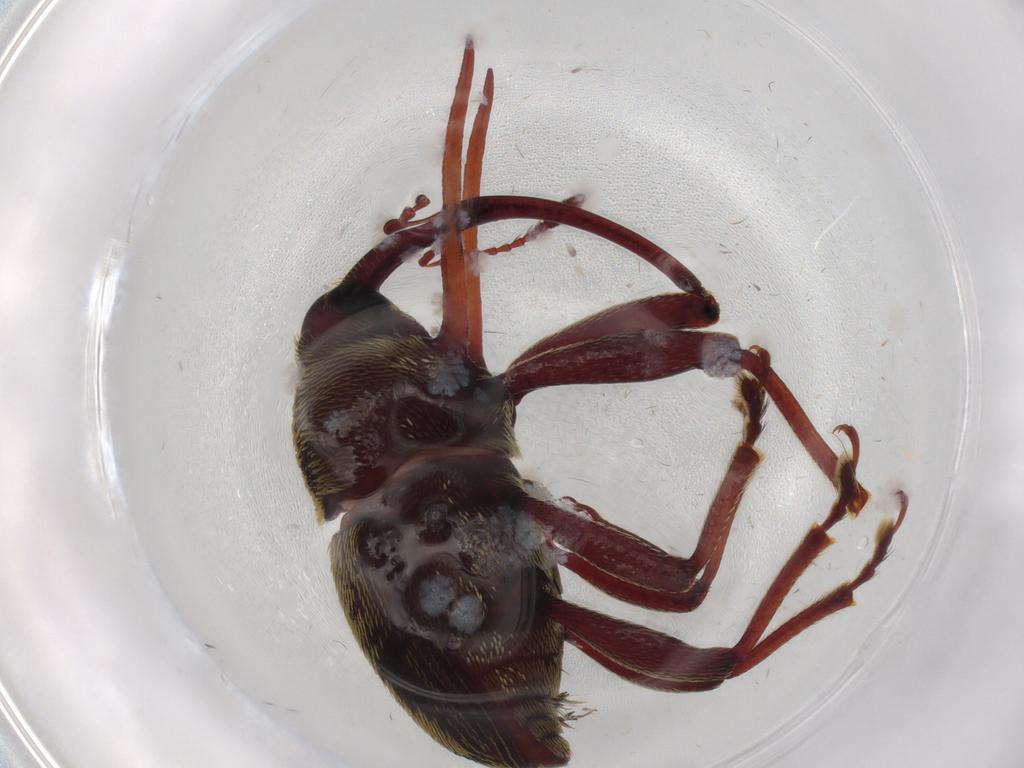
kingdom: Animalia
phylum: Arthropoda
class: Insecta
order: Coleoptera
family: Curculionidae
